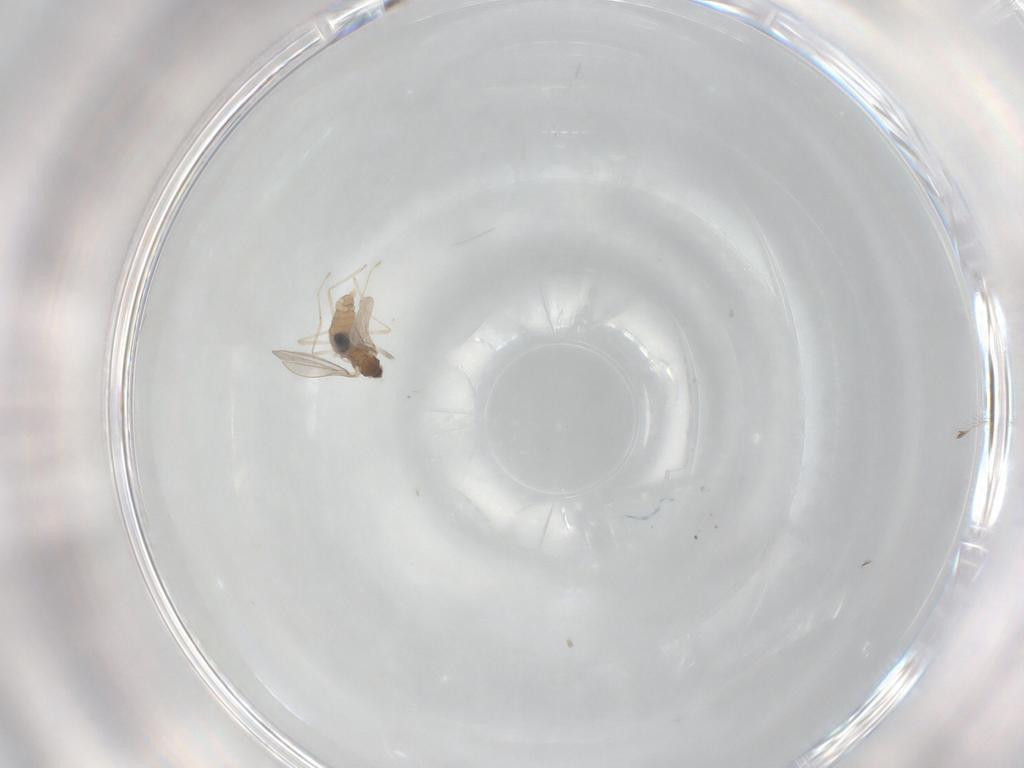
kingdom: Animalia
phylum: Arthropoda
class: Insecta
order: Diptera
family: Cecidomyiidae
